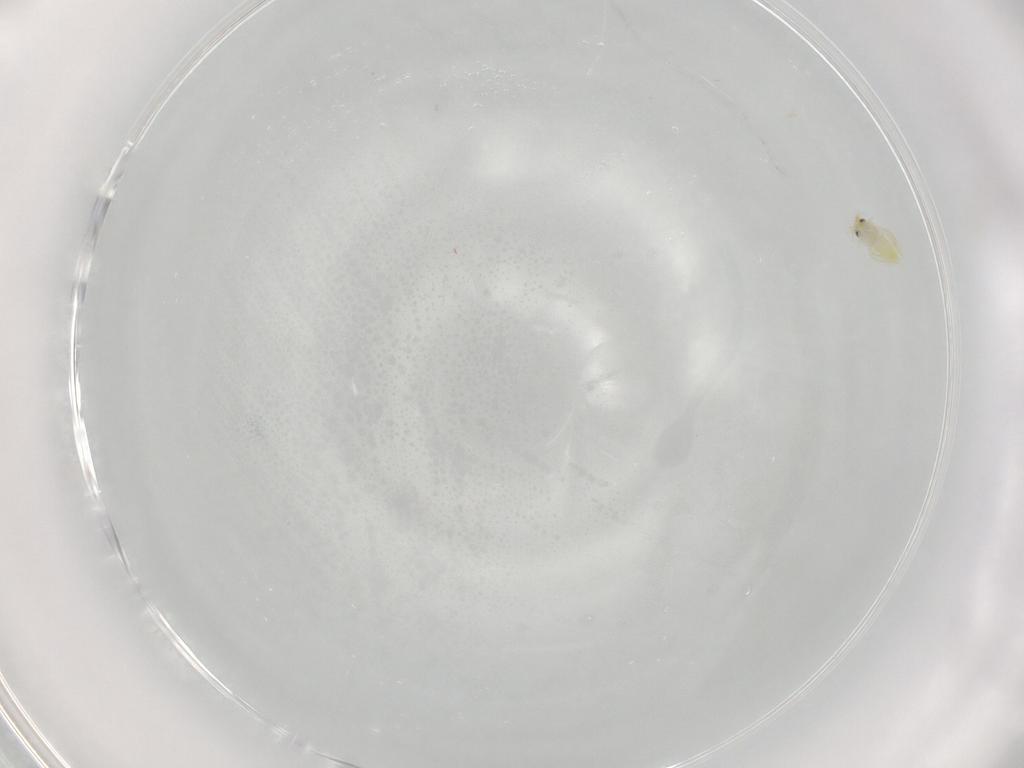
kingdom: Animalia
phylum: Arthropoda
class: Insecta
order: Hemiptera
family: Aleyrodidae
